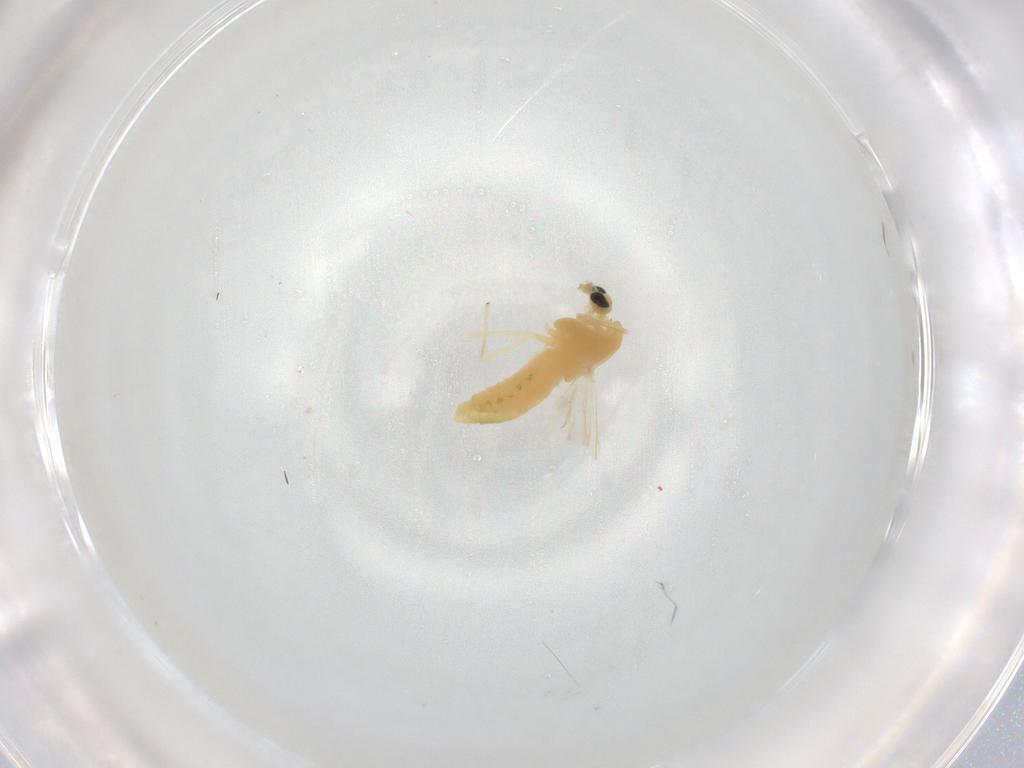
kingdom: Animalia
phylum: Arthropoda
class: Insecta
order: Diptera
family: Chironomidae
